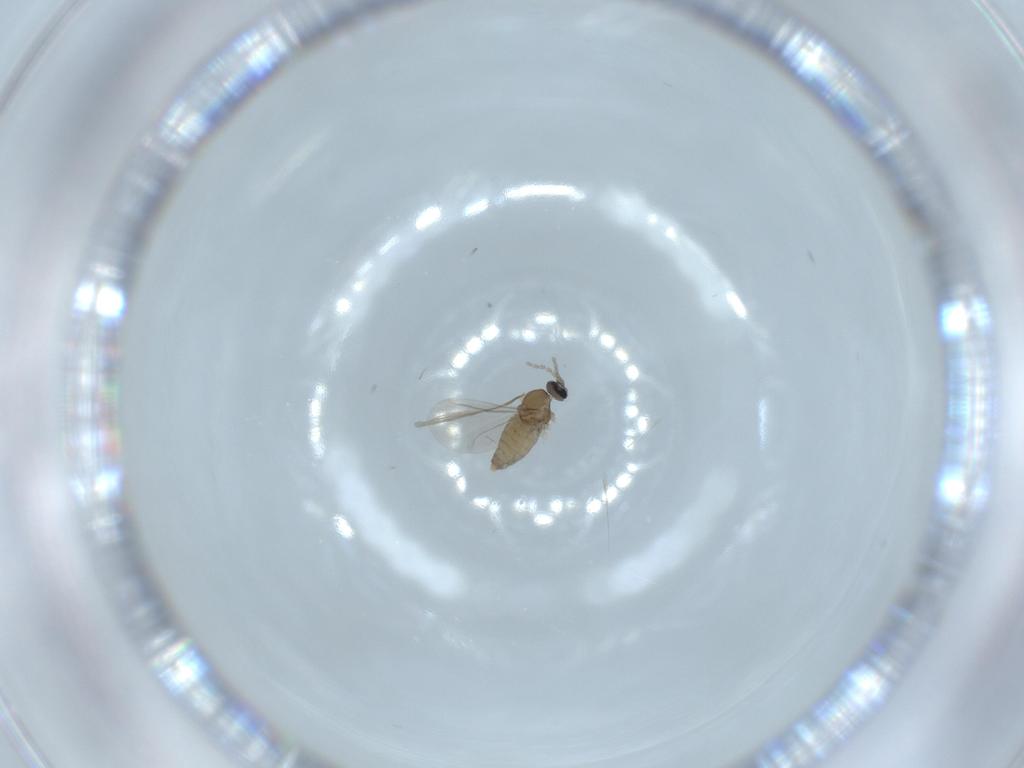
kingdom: Animalia
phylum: Arthropoda
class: Insecta
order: Diptera
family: Cecidomyiidae
